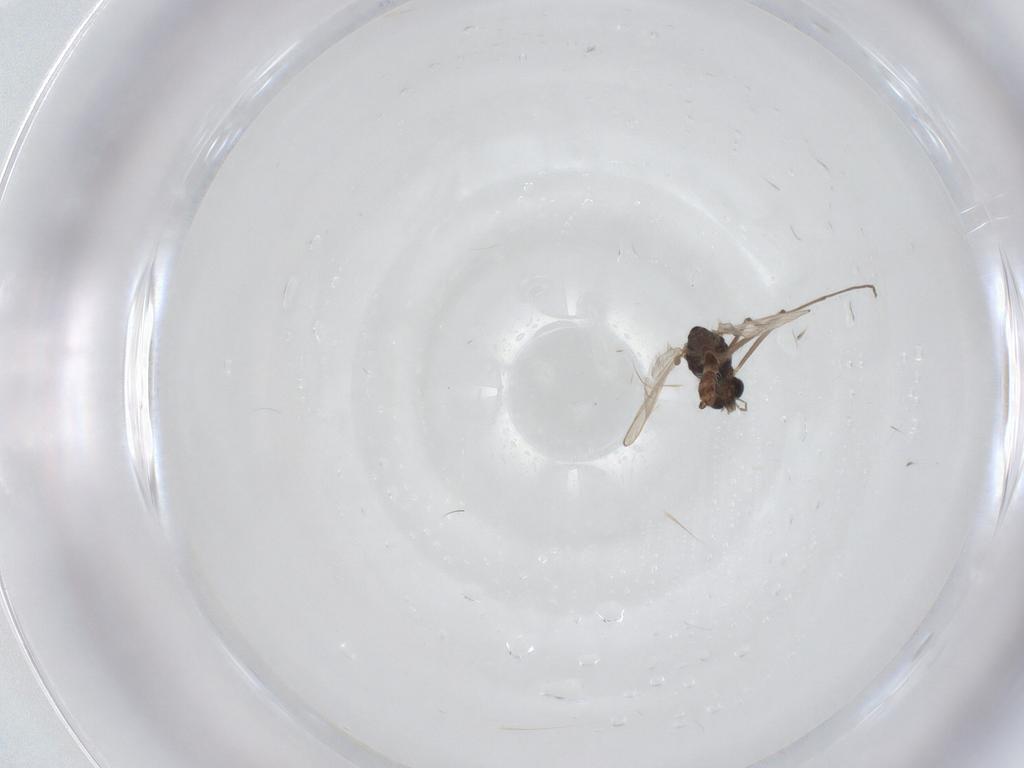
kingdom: Animalia
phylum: Arthropoda
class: Insecta
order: Diptera
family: Chironomidae
